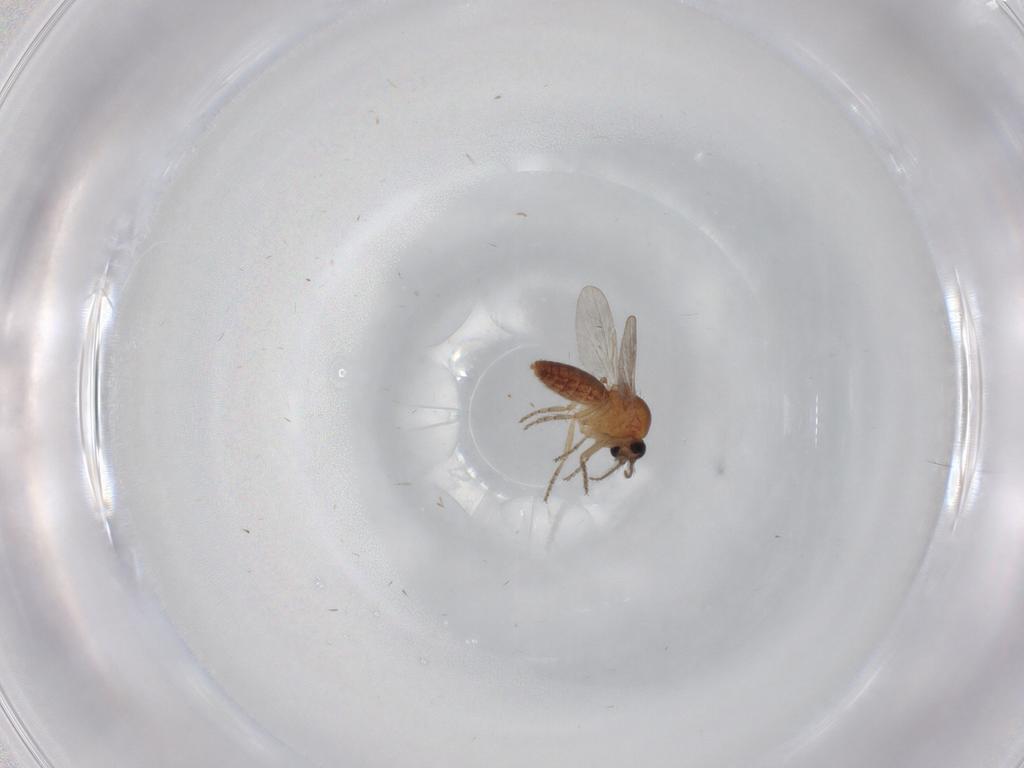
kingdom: Animalia
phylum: Arthropoda
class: Insecta
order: Diptera
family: Ceratopogonidae
